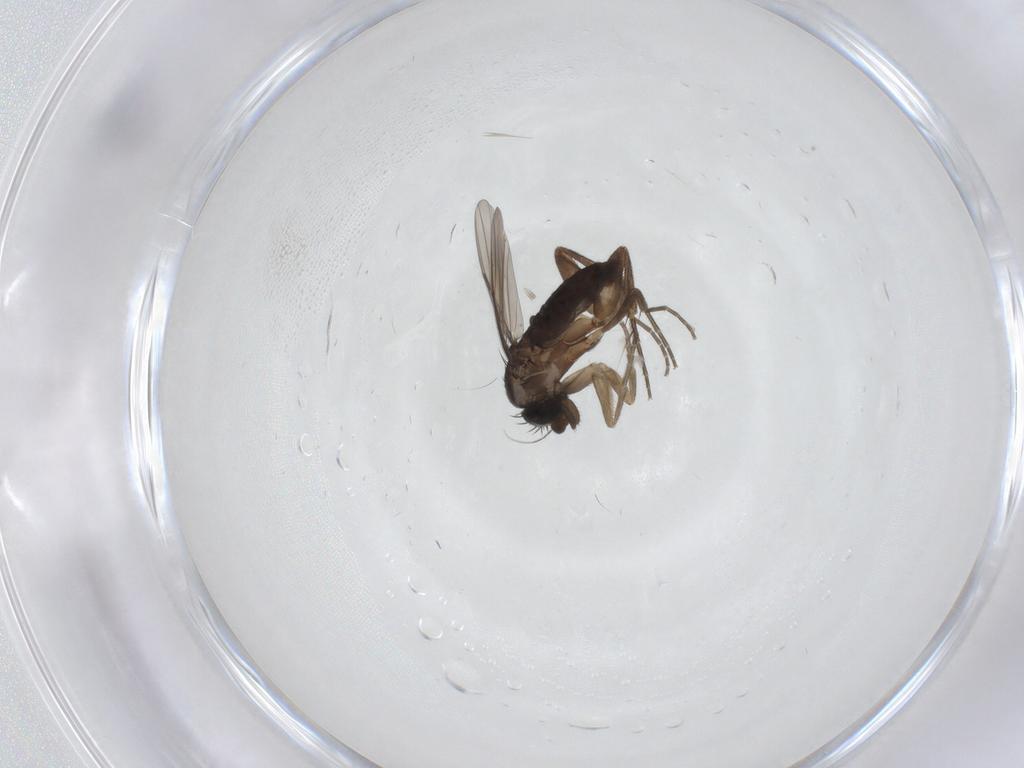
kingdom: Animalia
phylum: Arthropoda
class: Insecta
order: Diptera
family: Phoridae
